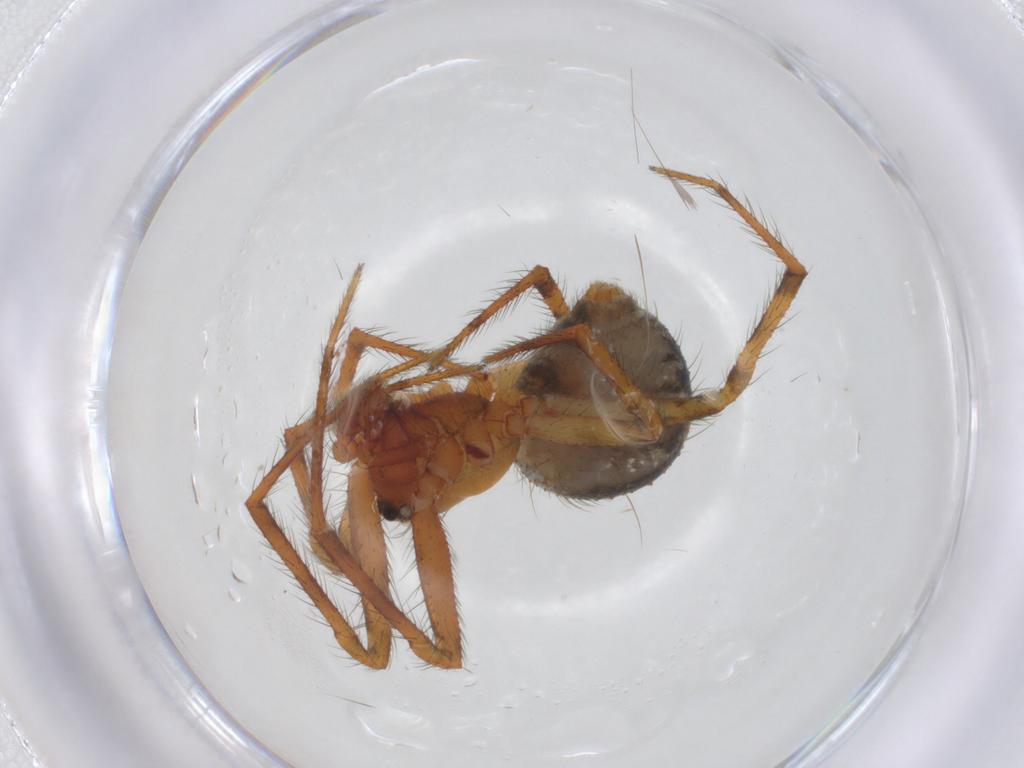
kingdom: Animalia
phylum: Arthropoda
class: Arachnida
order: Araneae
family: Theridiidae
